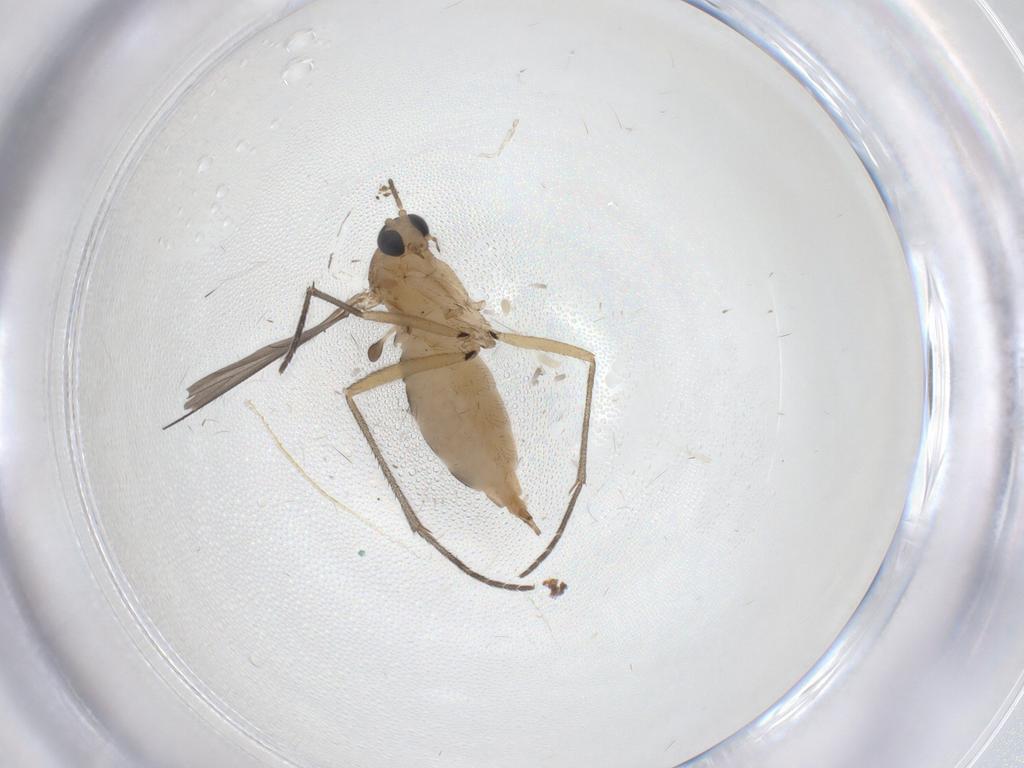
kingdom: Animalia
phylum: Arthropoda
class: Insecta
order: Diptera
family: Sciaridae
